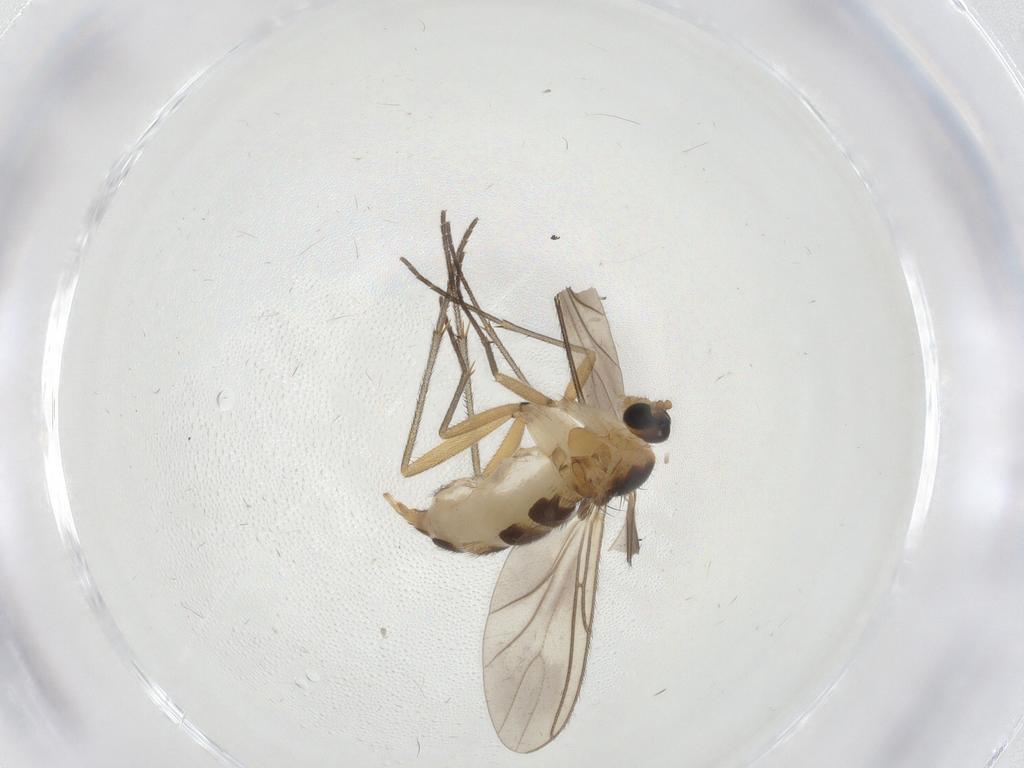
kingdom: Animalia
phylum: Arthropoda
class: Insecta
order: Diptera
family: Sciaridae
